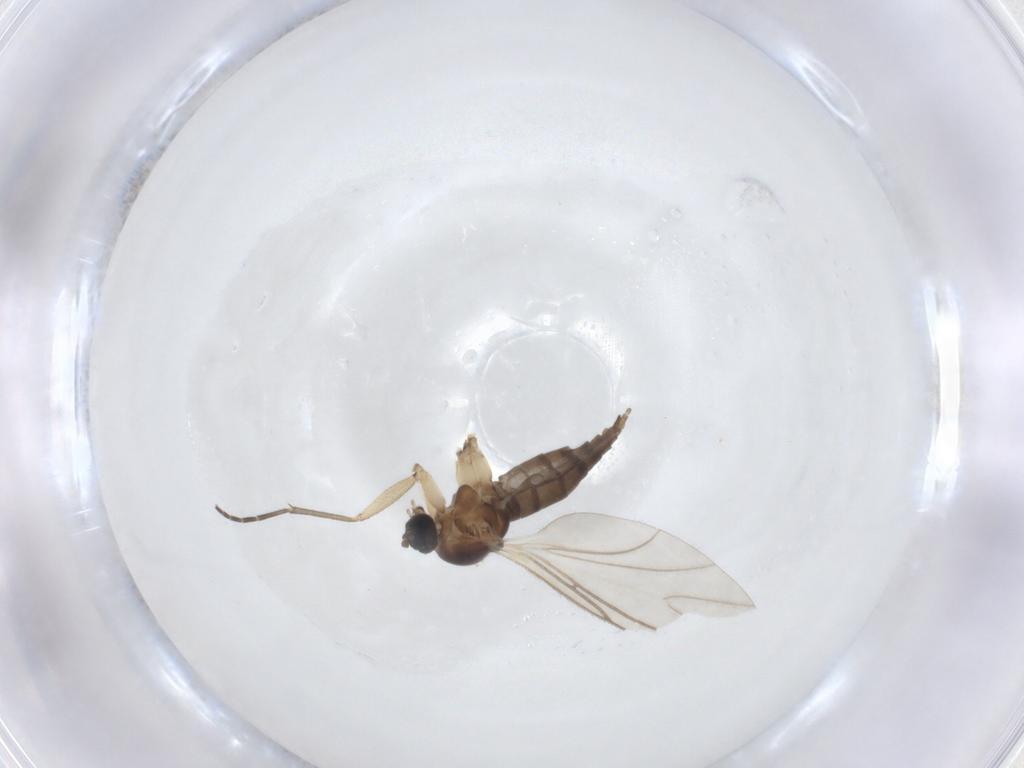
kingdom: Animalia
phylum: Arthropoda
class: Insecta
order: Diptera
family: Sciaridae
